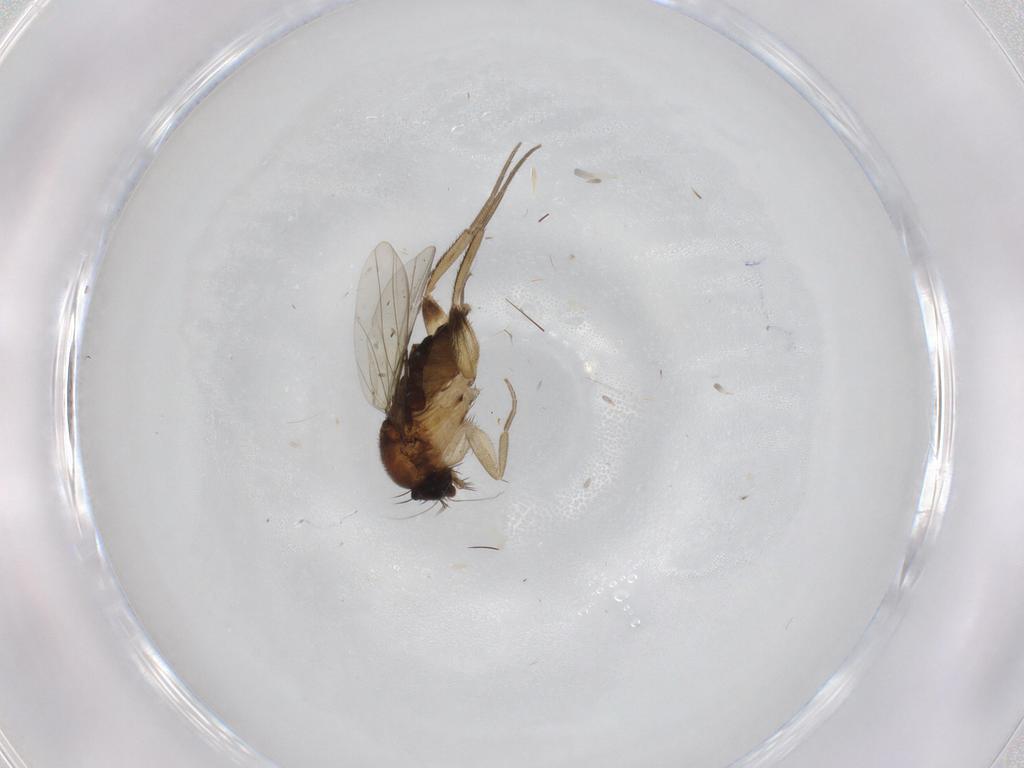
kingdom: Animalia
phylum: Arthropoda
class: Insecta
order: Diptera
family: Phoridae
